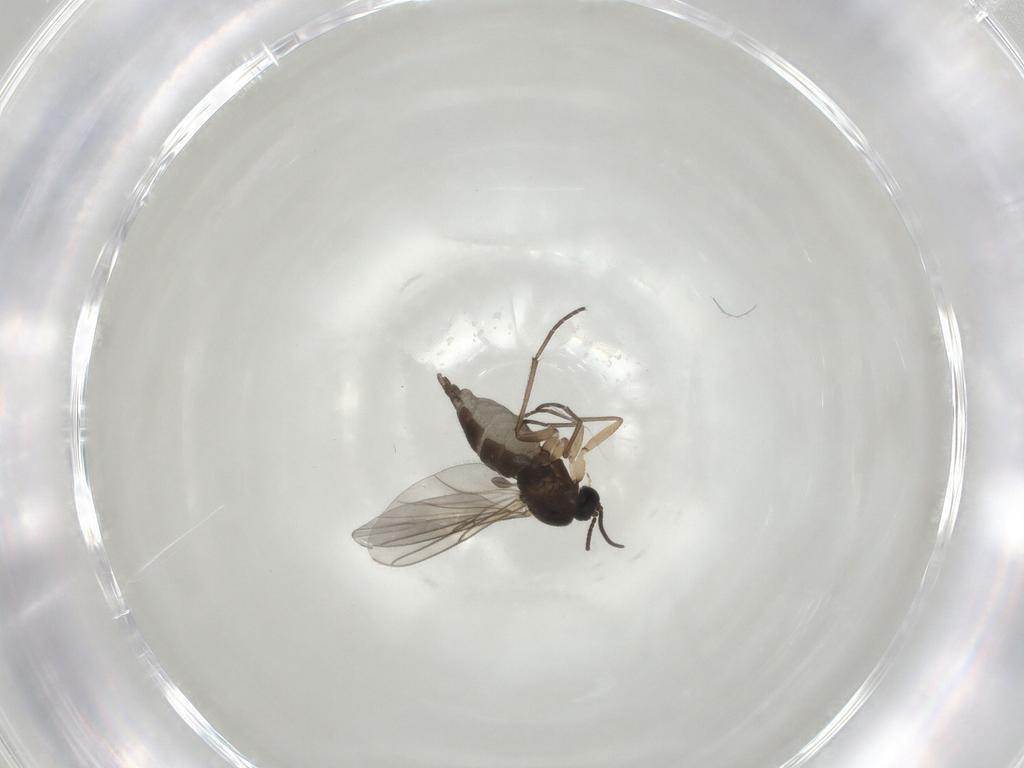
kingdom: Animalia
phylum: Arthropoda
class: Insecta
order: Diptera
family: Sciaridae
